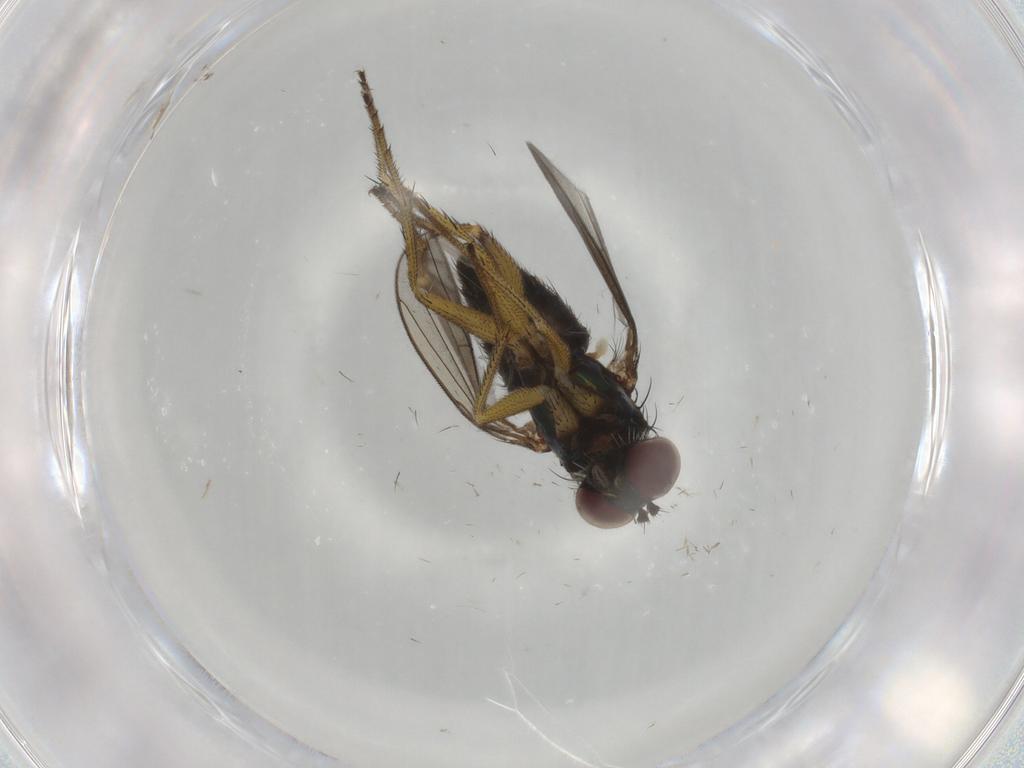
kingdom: Animalia
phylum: Arthropoda
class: Insecta
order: Diptera
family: Dolichopodidae
